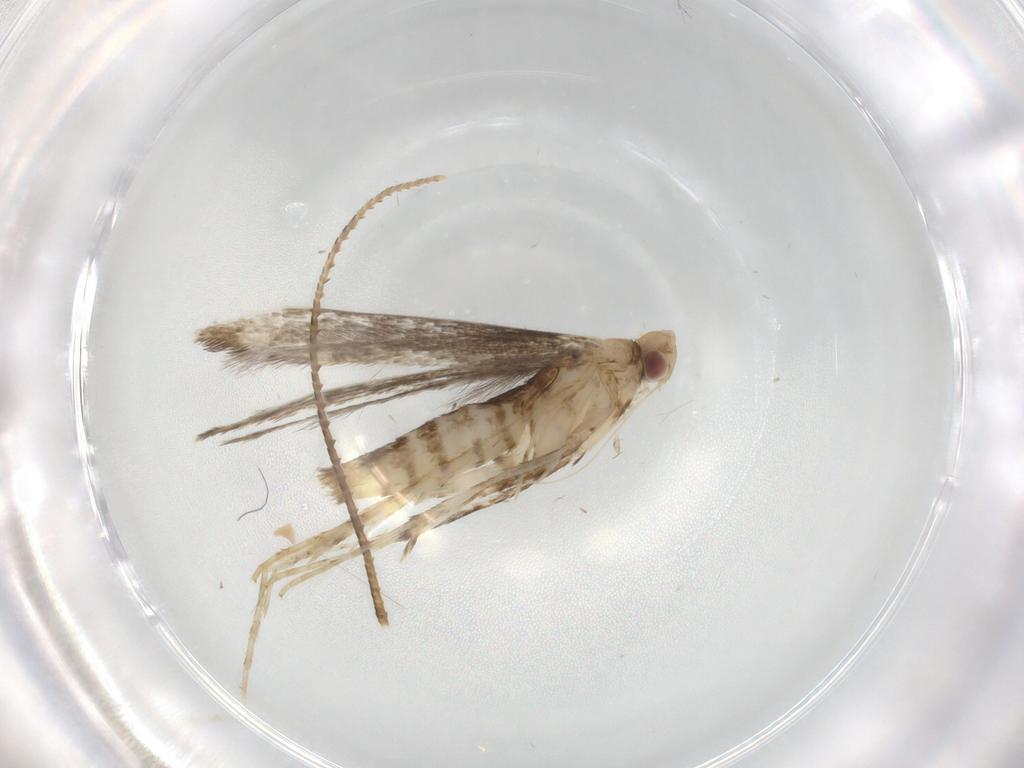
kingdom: Animalia
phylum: Arthropoda
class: Insecta
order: Lepidoptera
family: Gracillariidae
